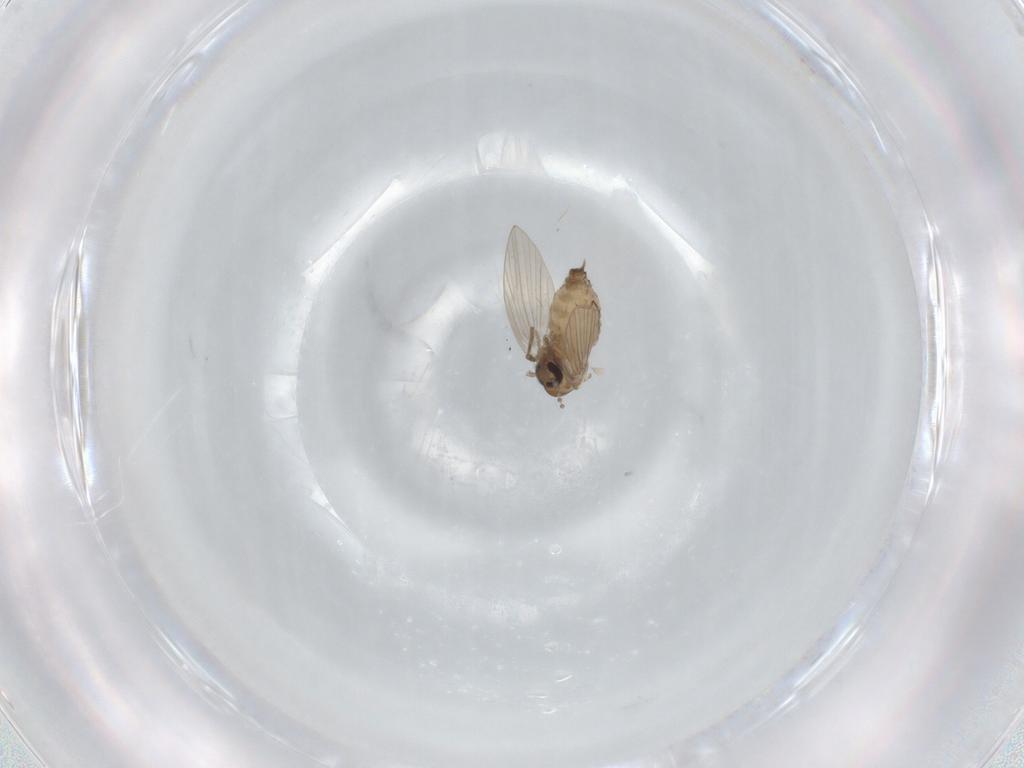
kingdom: Animalia
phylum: Arthropoda
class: Insecta
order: Diptera
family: Psychodidae
